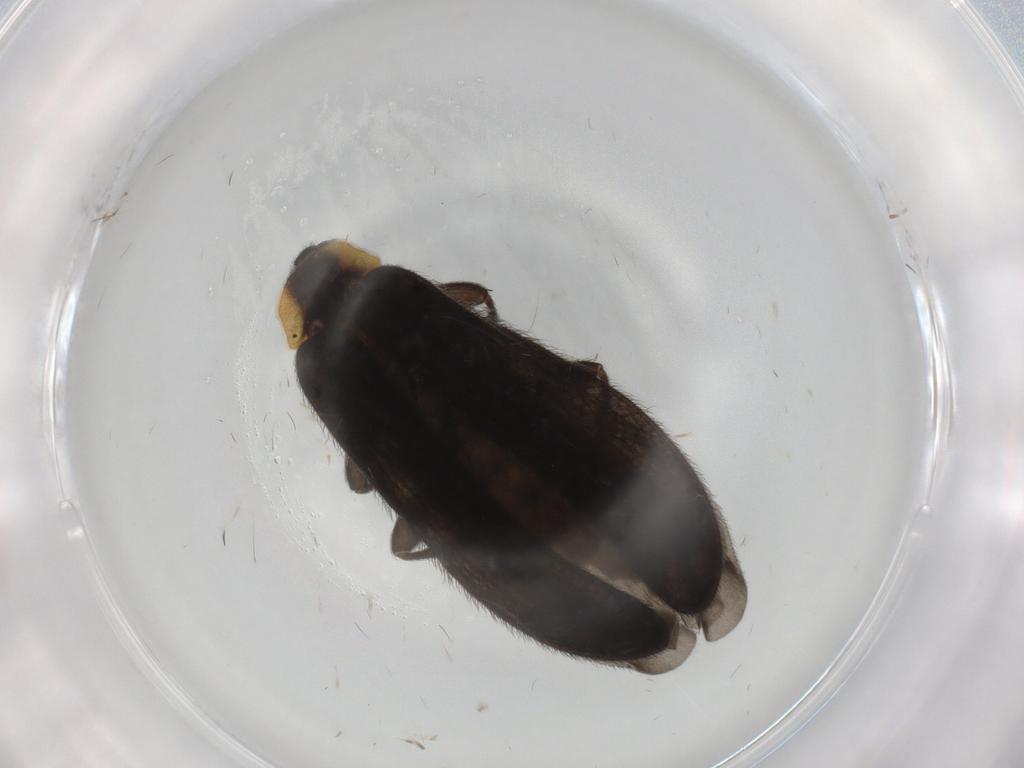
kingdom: Animalia
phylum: Arthropoda
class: Insecta
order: Coleoptera
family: Lycidae
